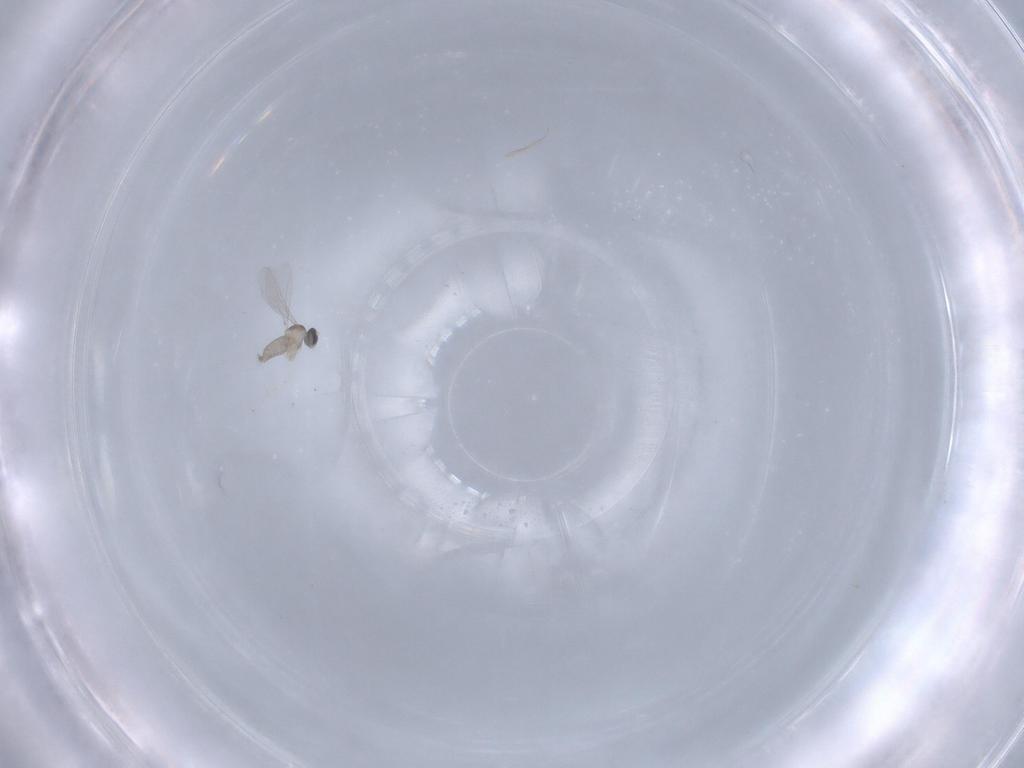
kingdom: Animalia
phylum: Arthropoda
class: Insecta
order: Diptera
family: Cecidomyiidae
